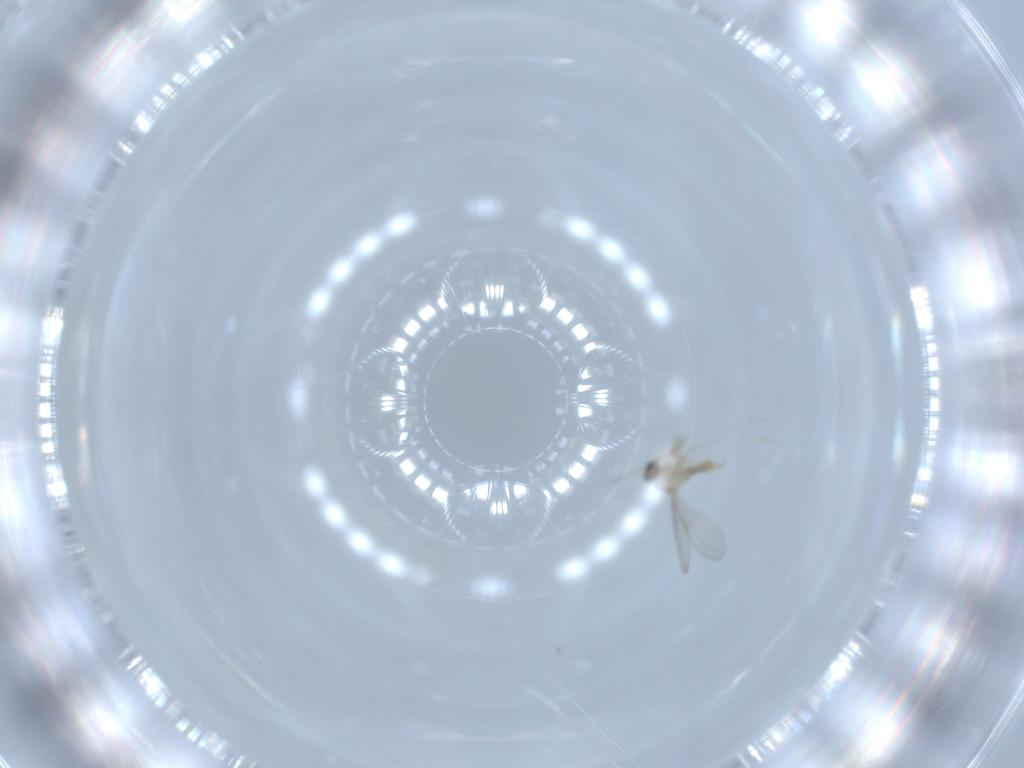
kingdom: Animalia
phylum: Arthropoda
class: Insecta
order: Diptera
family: Cecidomyiidae
